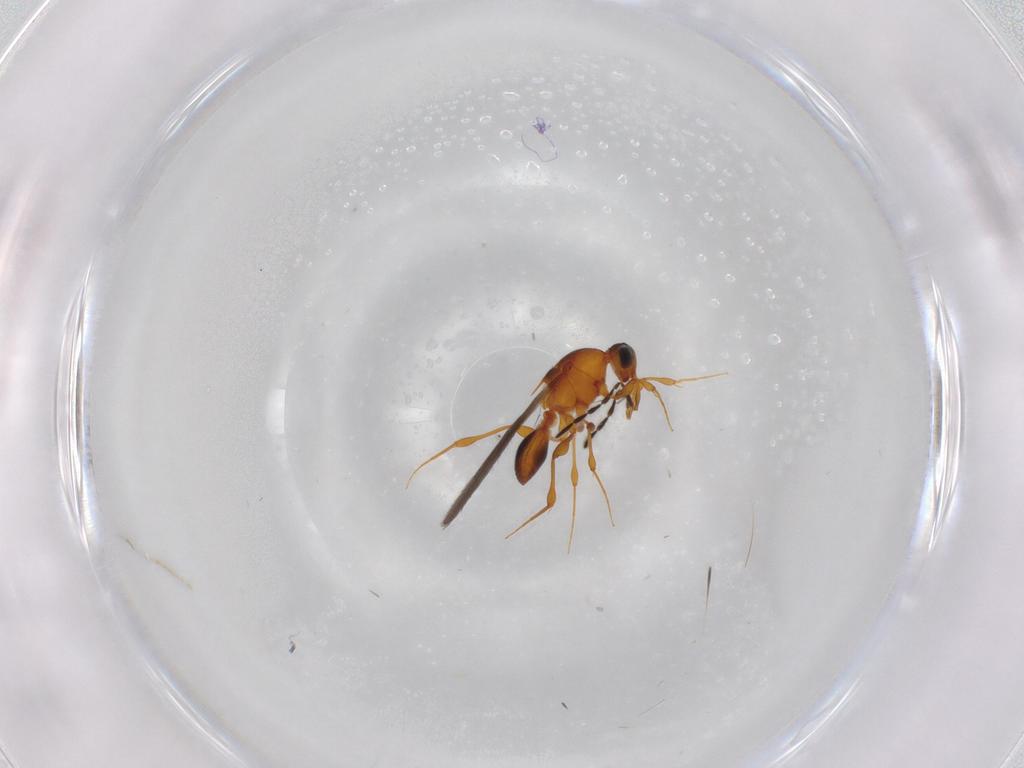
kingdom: Animalia
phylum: Arthropoda
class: Insecta
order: Hymenoptera
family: Platygastridae
